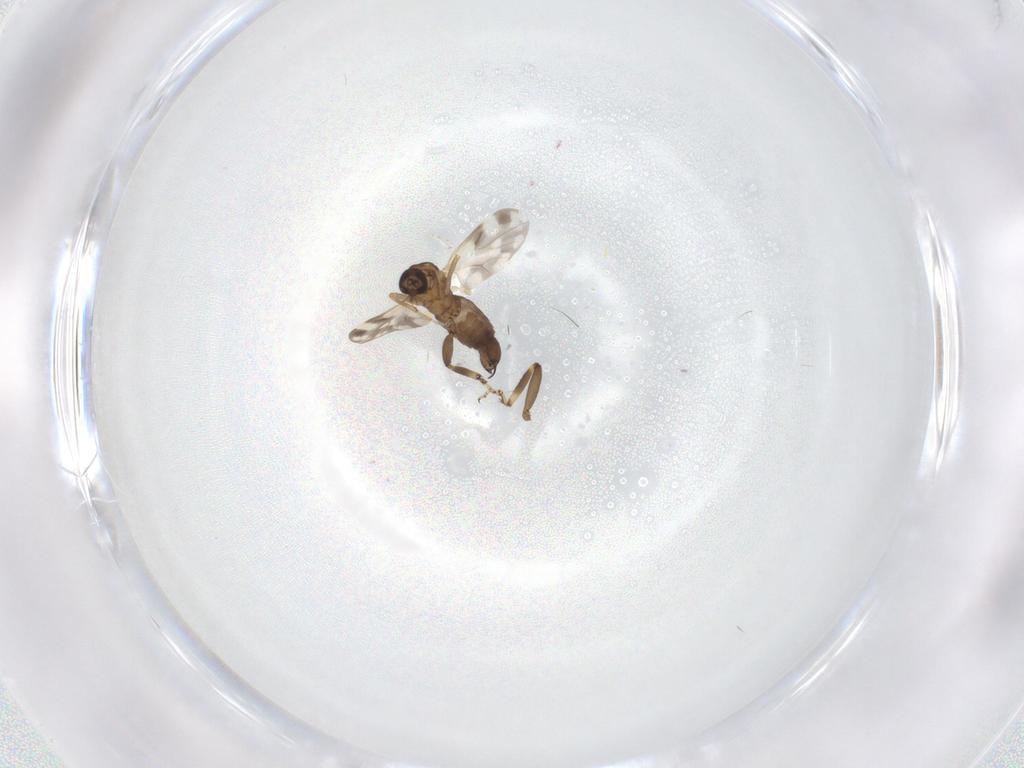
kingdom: Animalia
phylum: Arthropoda
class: Insecta
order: Diptera
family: Ceratopogonidae
